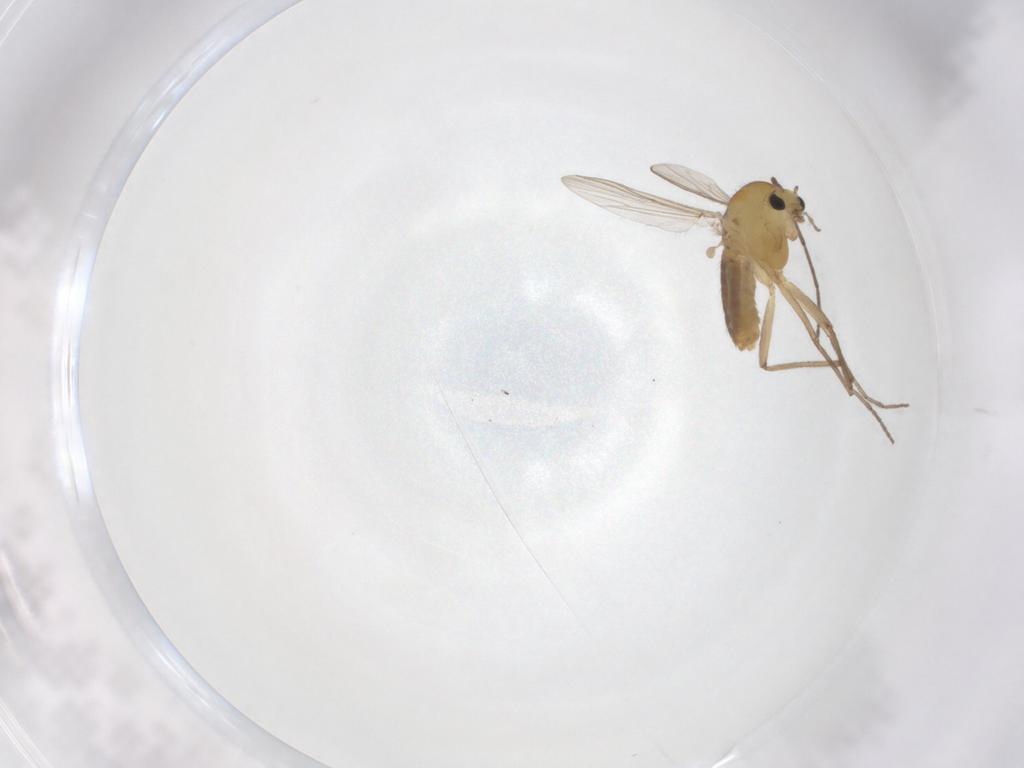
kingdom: Animalia
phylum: Arthropoda
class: Insecta
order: Diptera
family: Chironomidae
